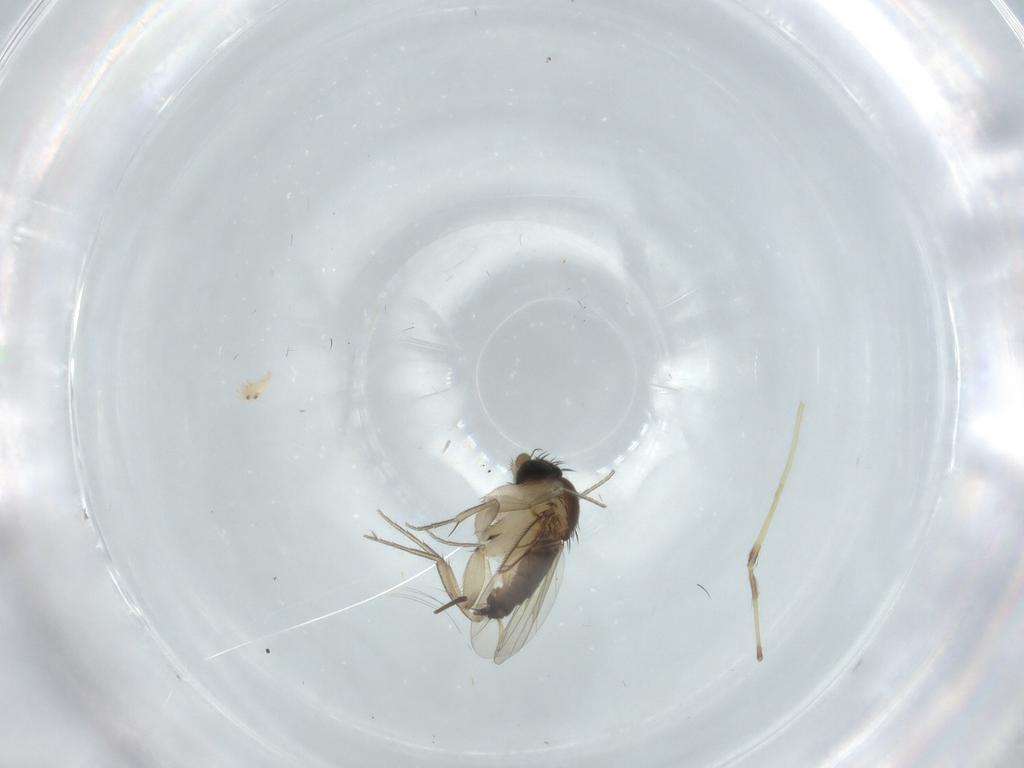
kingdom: Animalia
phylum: Arthropoda
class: Insecta
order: Diptera
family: Phoridae
